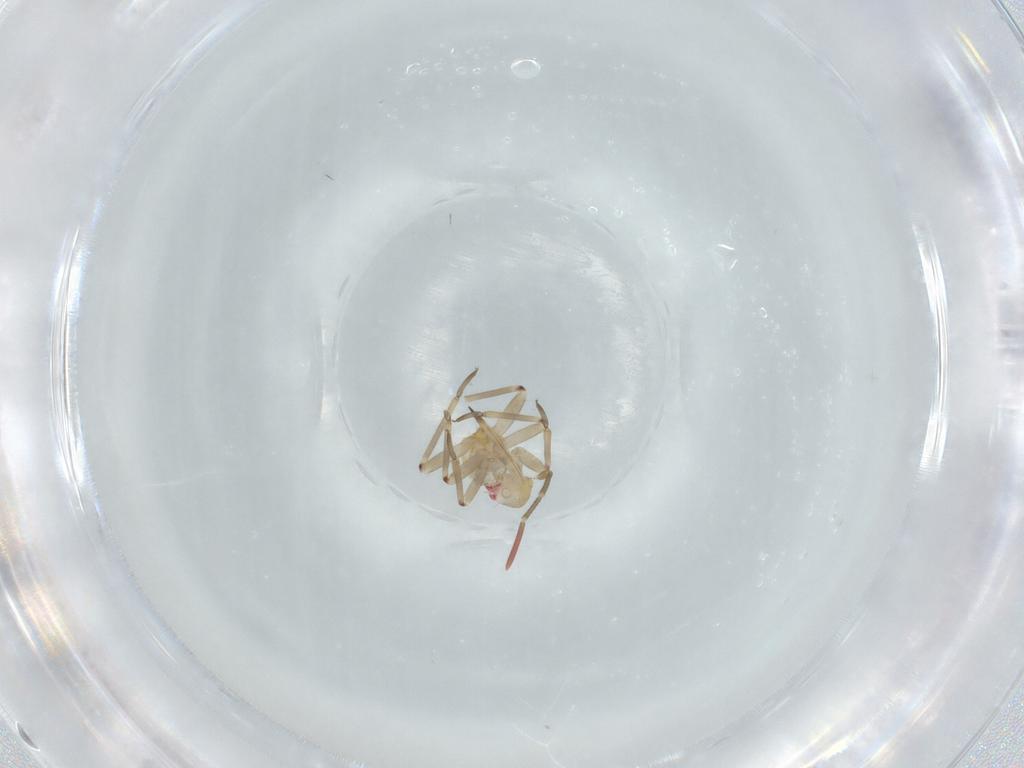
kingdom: Animalia
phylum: Arthropoda
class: Insecta
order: Hemiptera
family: Miridae
